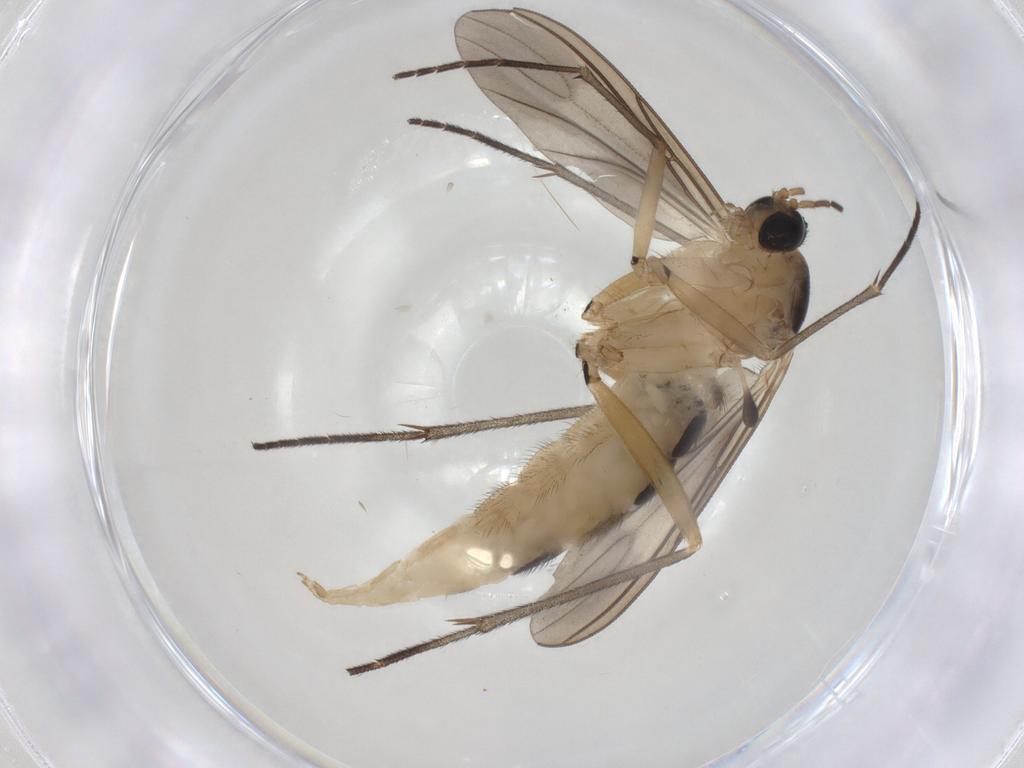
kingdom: Animalia
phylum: Arthropoda
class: Insecta
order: Diptera
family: Sciaridae
